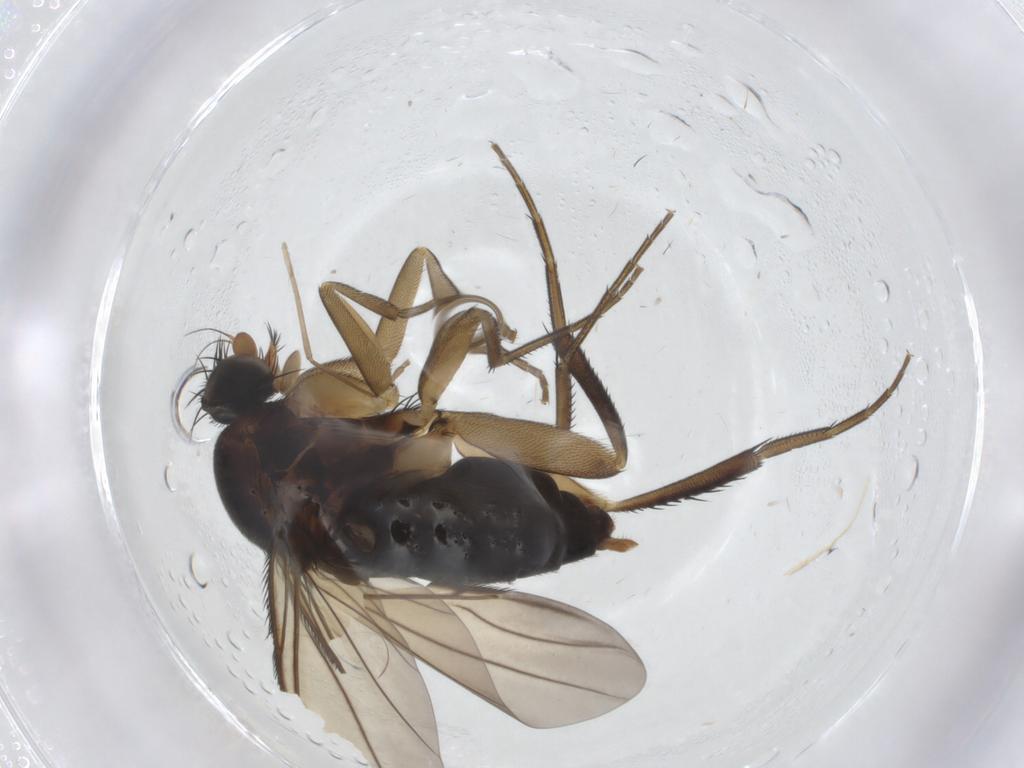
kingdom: Animalia
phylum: Arthropoda
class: Insecta
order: Diptera
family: Phoridae
